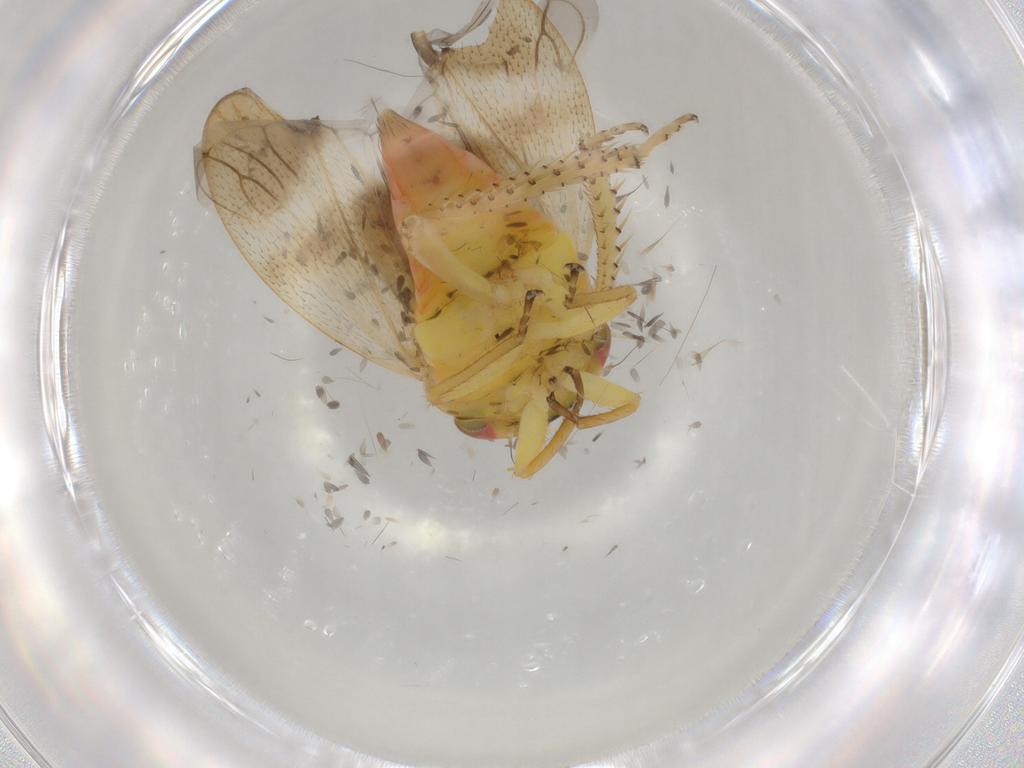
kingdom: Animalia
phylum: Arthropoda
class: Insecta
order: Hemiptera
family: Cicadellidae
